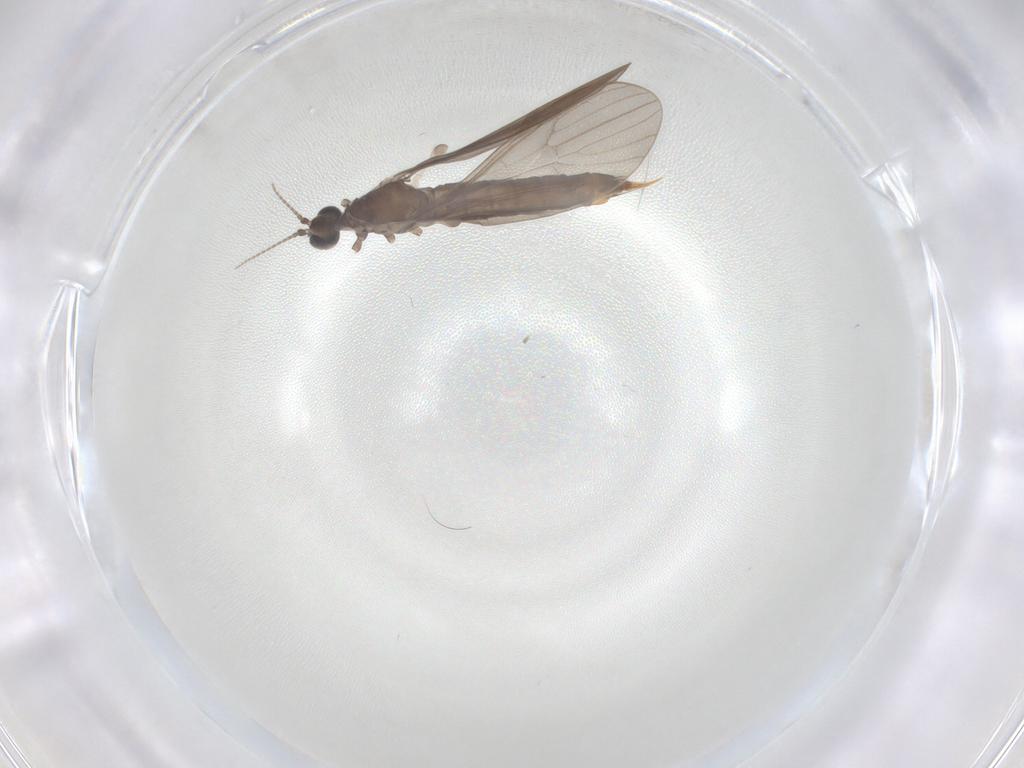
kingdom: Animalia
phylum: Arthropoda
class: Insecta
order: Diptera
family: Limoniidae
